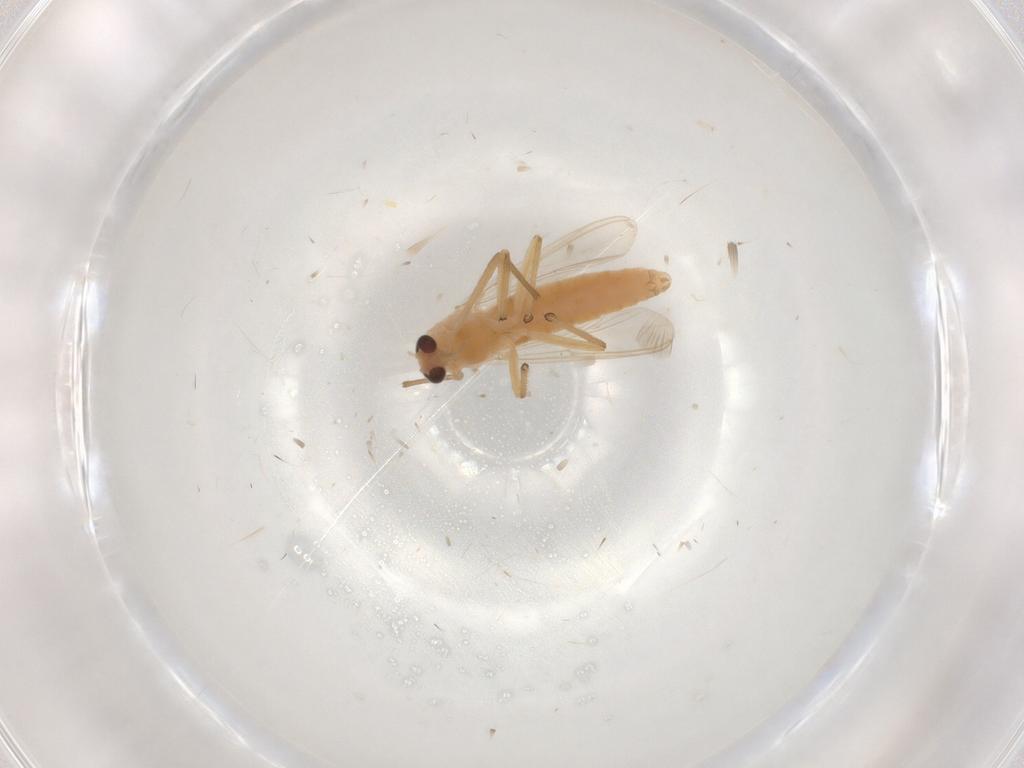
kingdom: Animalia
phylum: Arthropoda
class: Insecta
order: Diptera
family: Chironomidae
